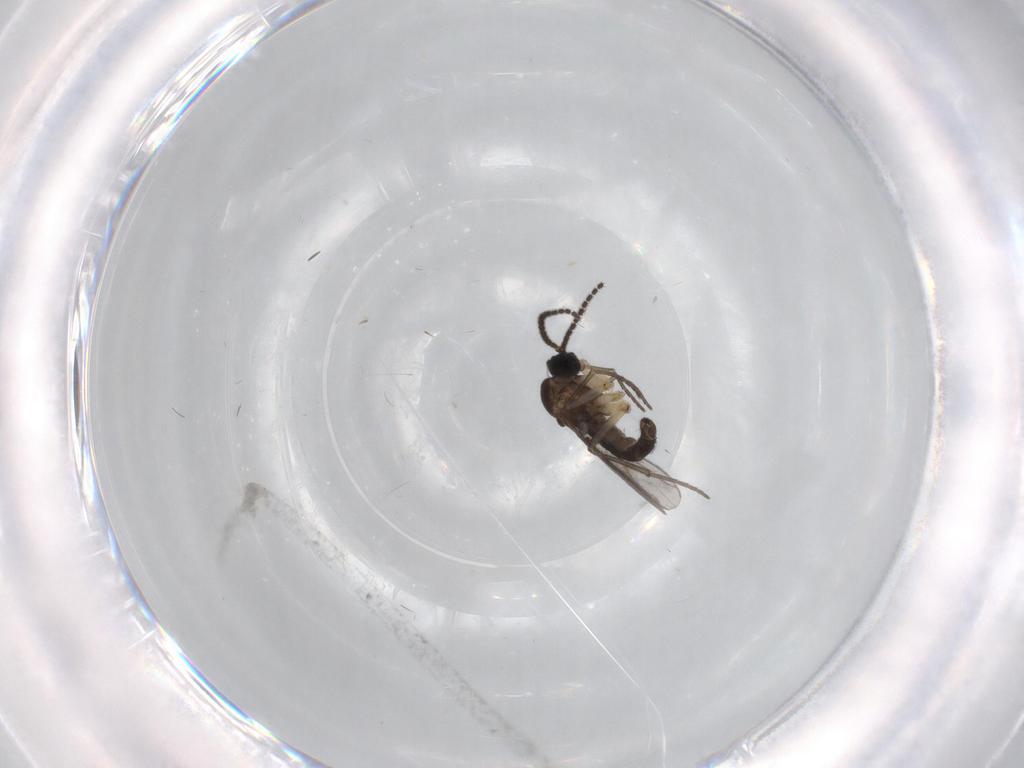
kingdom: Animalia
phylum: Arthropoda
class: Insecta
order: Diptera
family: Sciaridae
